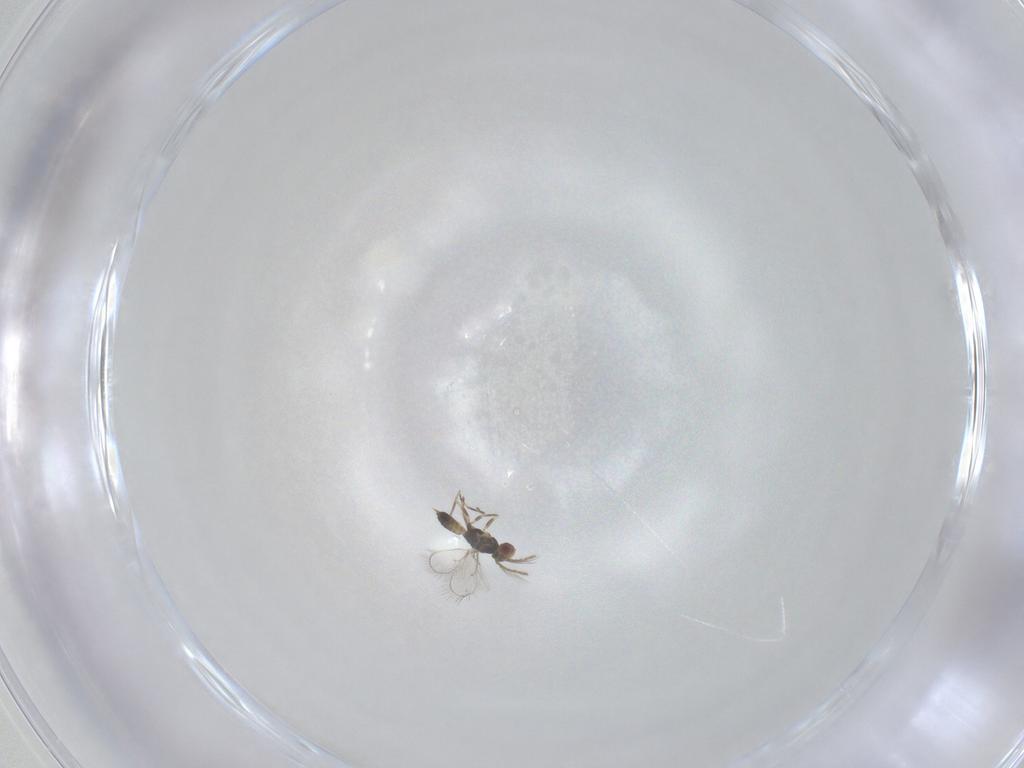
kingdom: Animalia
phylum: Arthropoda
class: Insecta
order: Hymenoptera
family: Eulophidae
